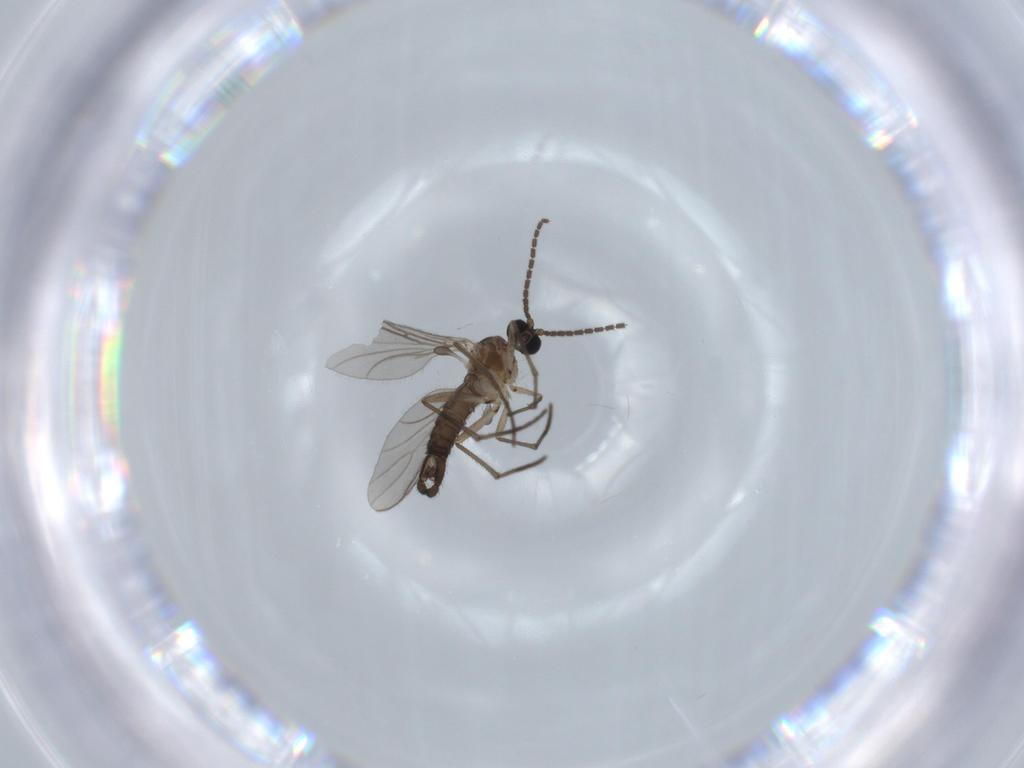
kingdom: Animalia
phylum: Arthropoda
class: Insecta
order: Diptera
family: Sciaridae
